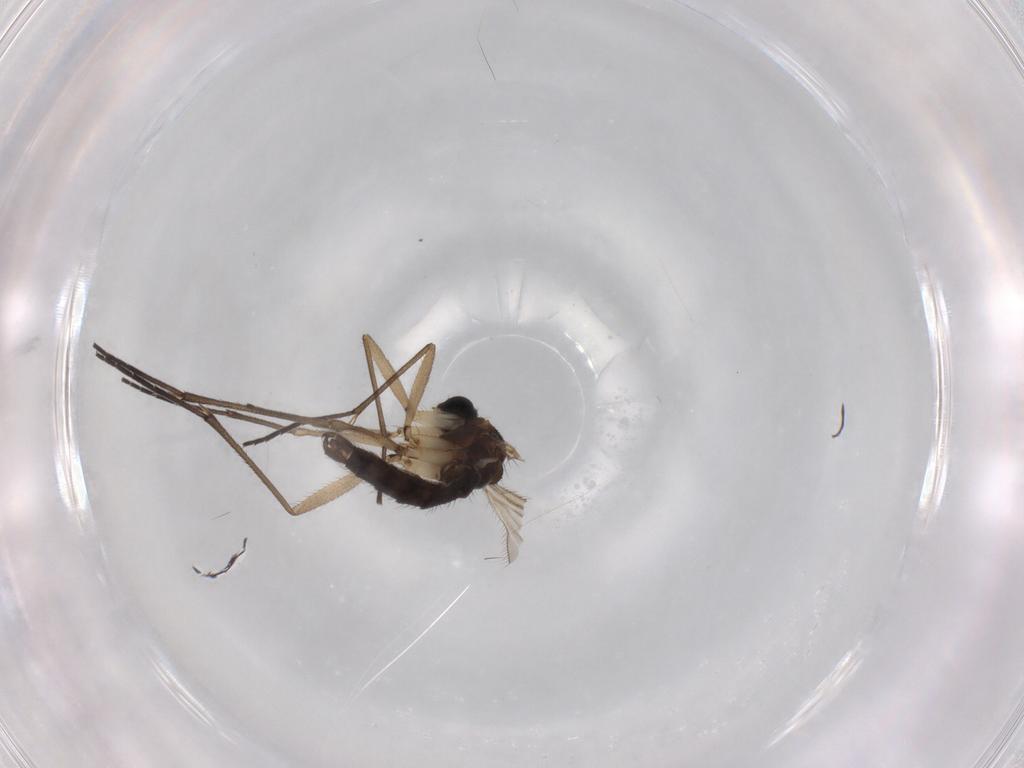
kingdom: Animalia
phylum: Arthropoda
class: Insecta
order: Diptera
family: Sciaridae
